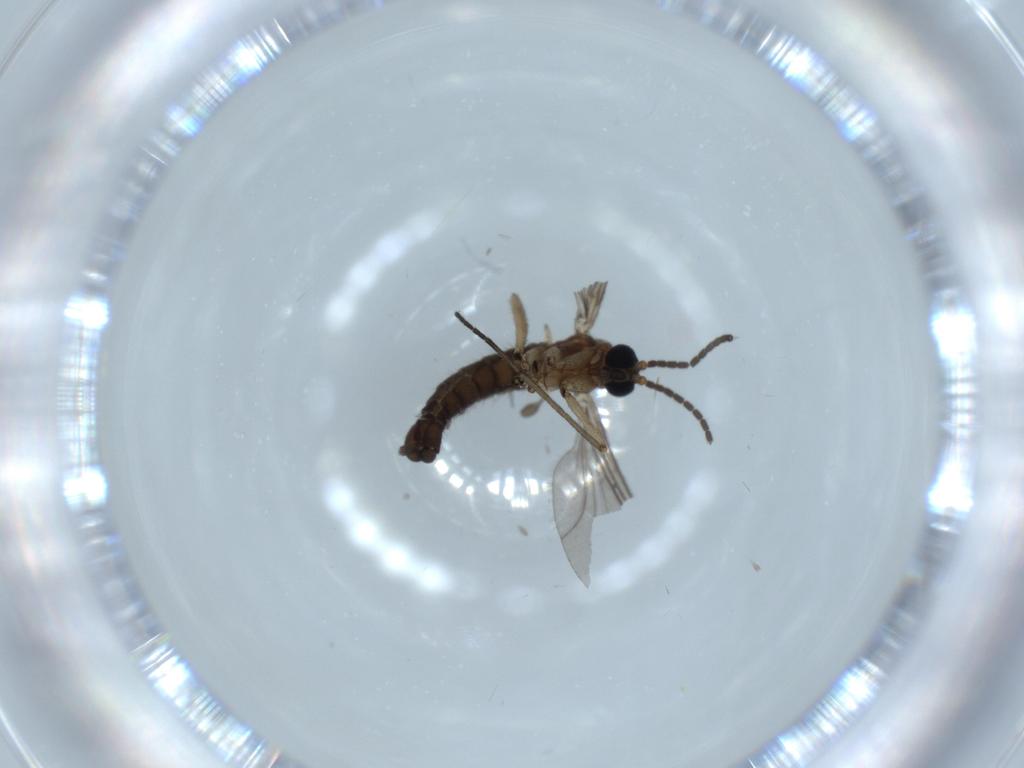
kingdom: Animalia
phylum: Arthropoda
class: Insecta
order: Diptera
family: Sciaridae
